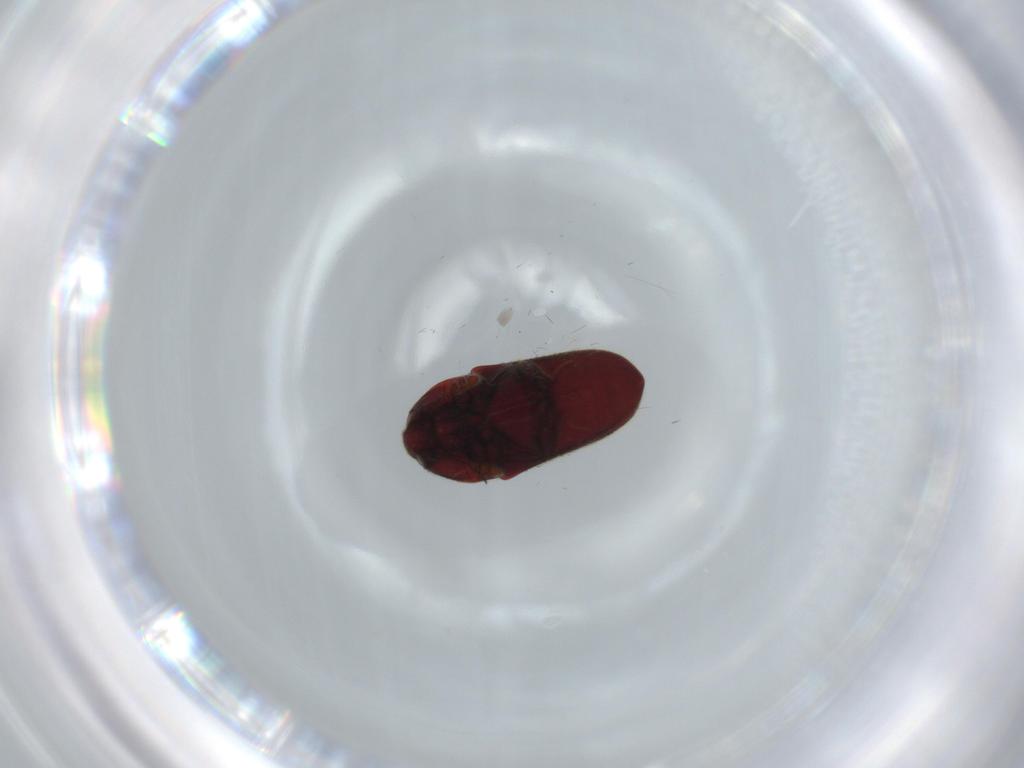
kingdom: Animalia
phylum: Arthropoda
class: Insecta
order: Coleoptera
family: Throscidae
